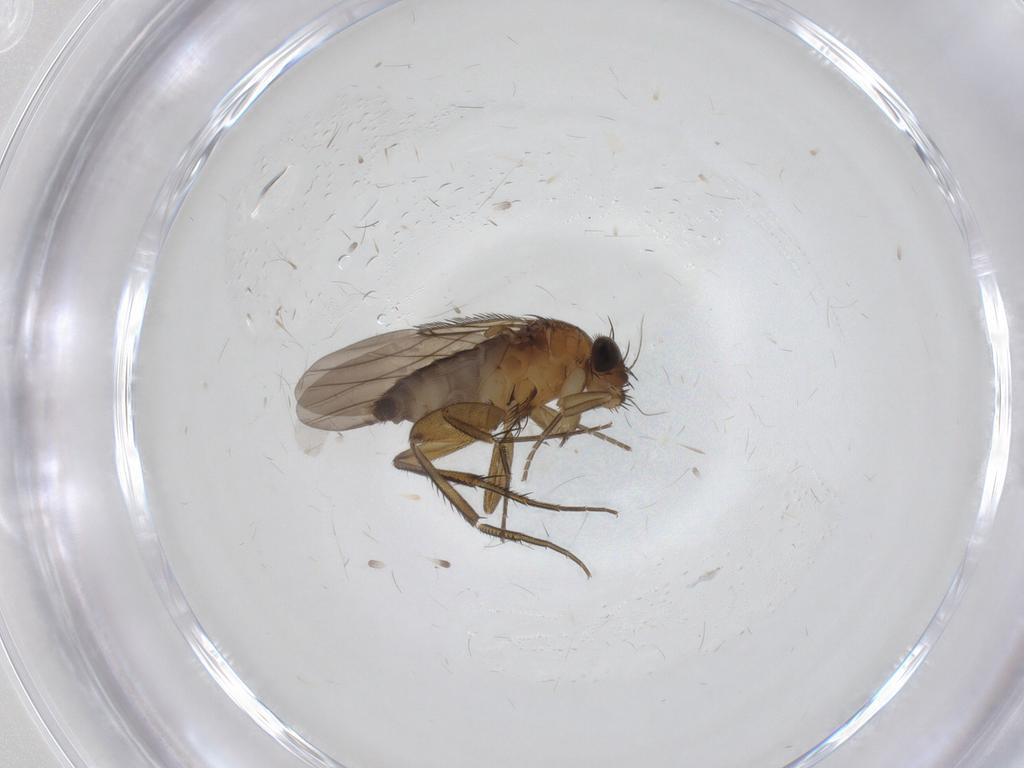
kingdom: Animalia
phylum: Arthropoda
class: Insecta
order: Diptera
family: Phoridae
